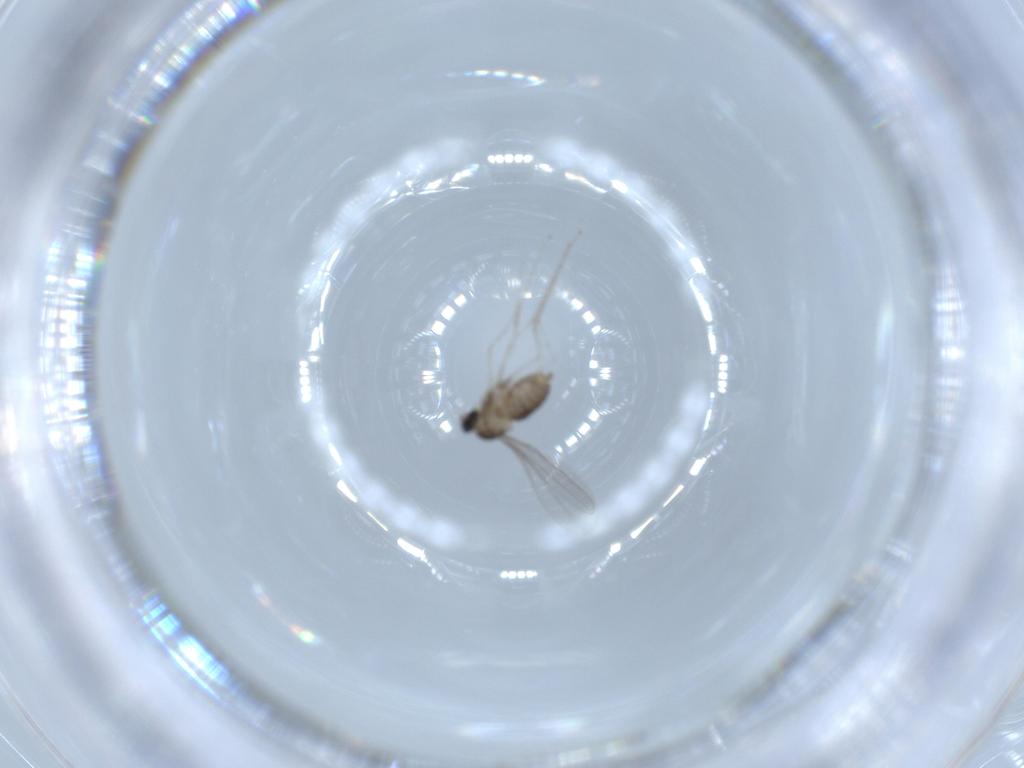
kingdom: Animalia
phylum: Arthropoda
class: Insecta
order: Diptera
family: Cecidomyiidae
